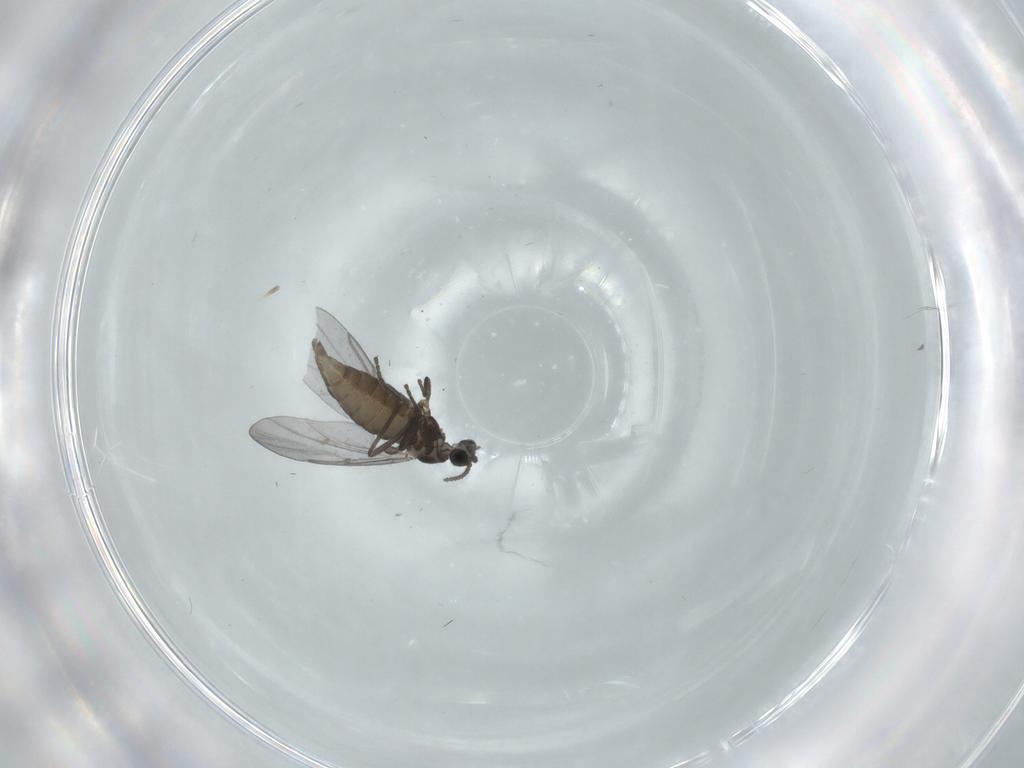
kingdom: Animalia
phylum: Arthropoda
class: Insecta
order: Diptera
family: Cecidomyiidae
